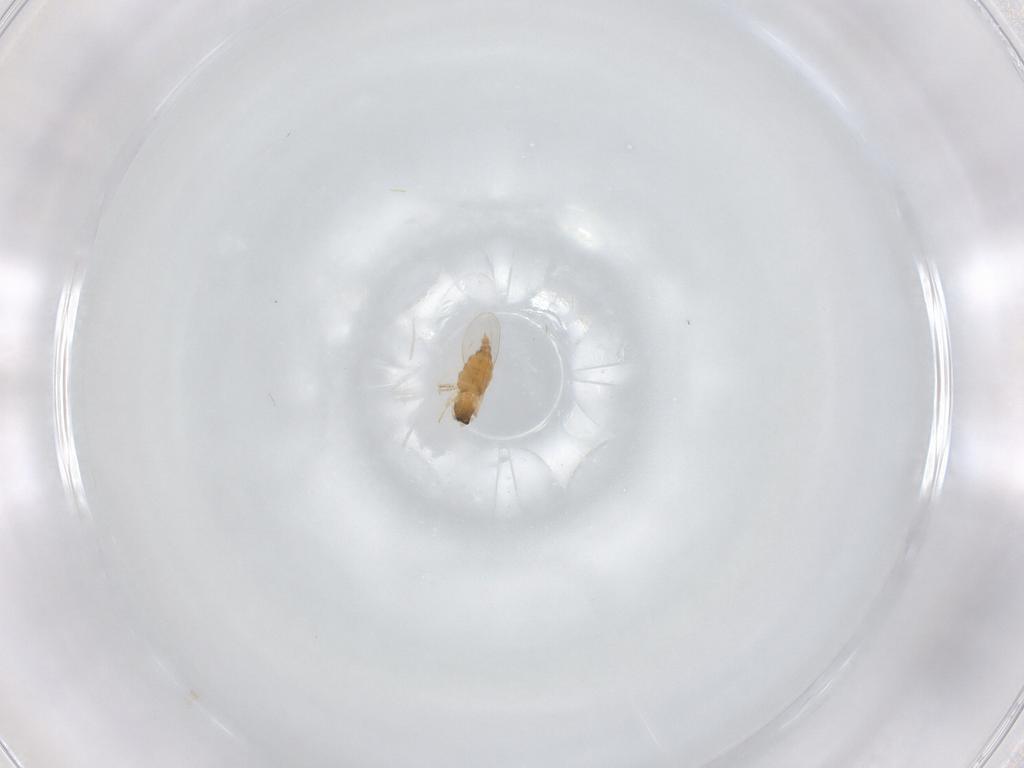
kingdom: Animalia
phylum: Arthropoda
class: Insecta
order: Diptera
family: Cecidomyiidae
